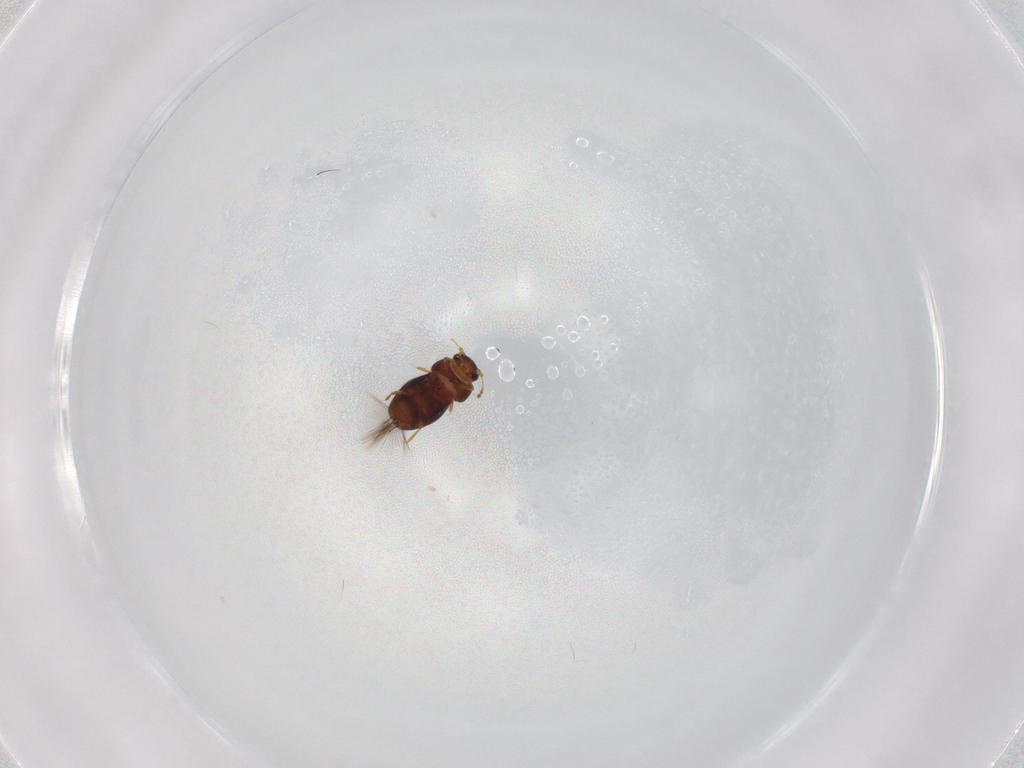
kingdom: Animalia
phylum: Arthropoda
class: Insecta
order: Coleoptera
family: Ptiliidae
